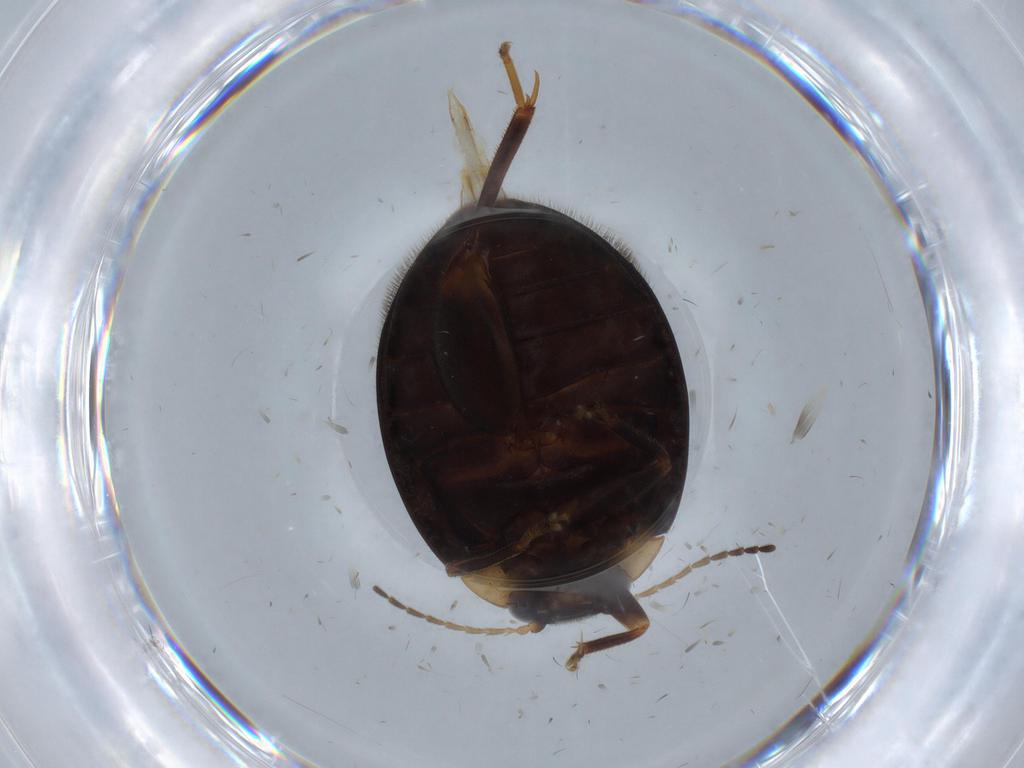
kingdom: Animalia
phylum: Arthropoda
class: Insecta
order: Coleoptera
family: Scirtidae
